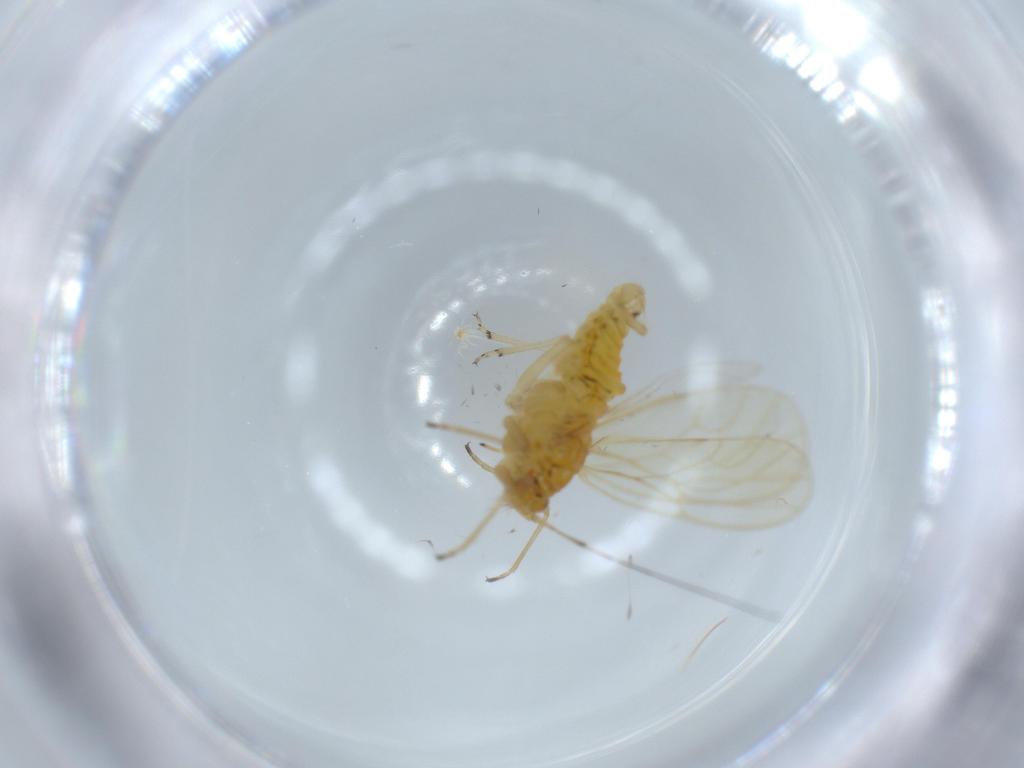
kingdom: Animalia
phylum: Arthropoda
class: Insecta
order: Hemiptera
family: Psyllidae
